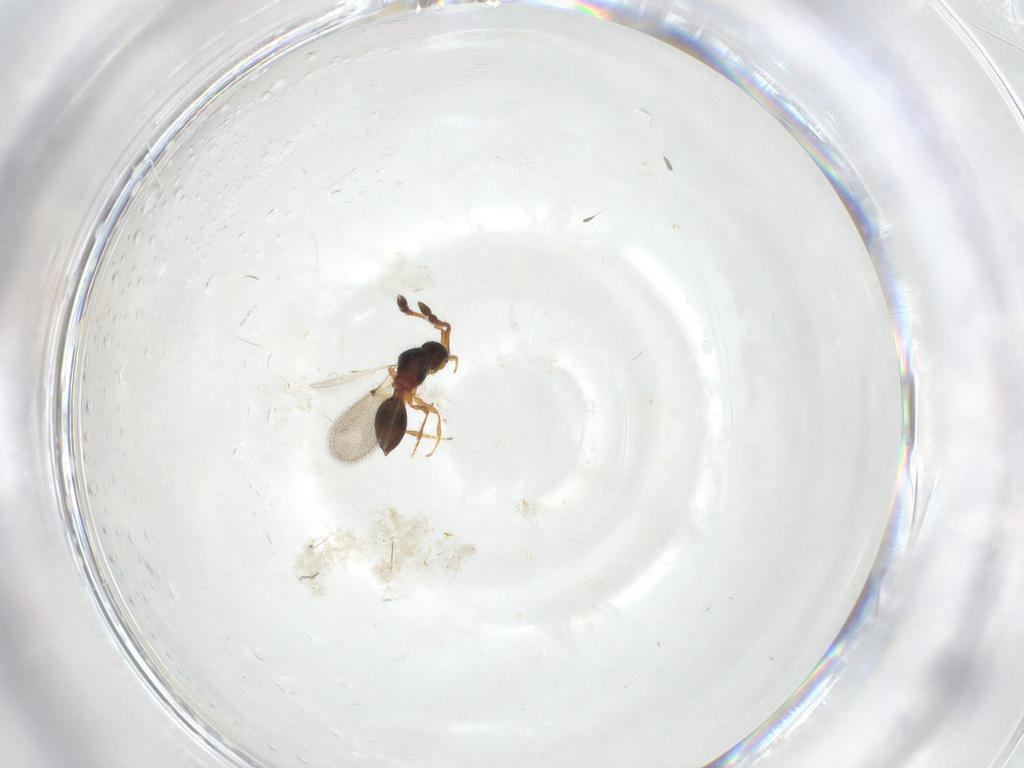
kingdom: Animalia
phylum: Arthropoda
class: Insecta
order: Hymenoptera
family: Diapriidae
